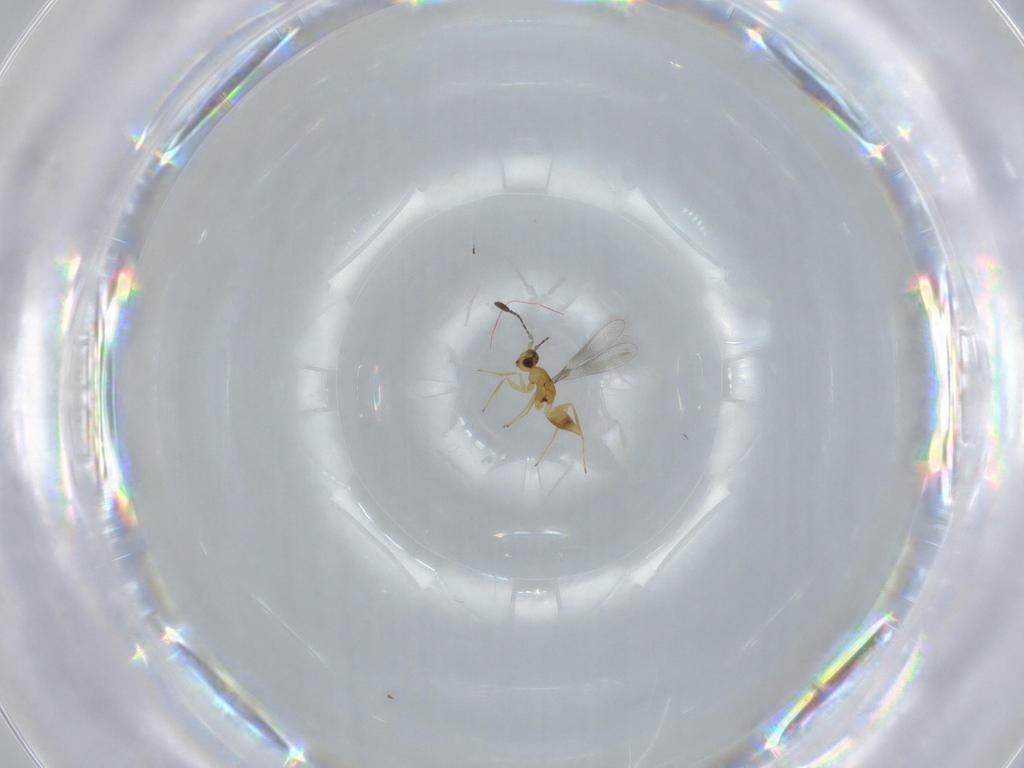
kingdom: Animalia
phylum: Arthropoda
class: Insecta
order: Hymenoptera
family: Mymaridae
